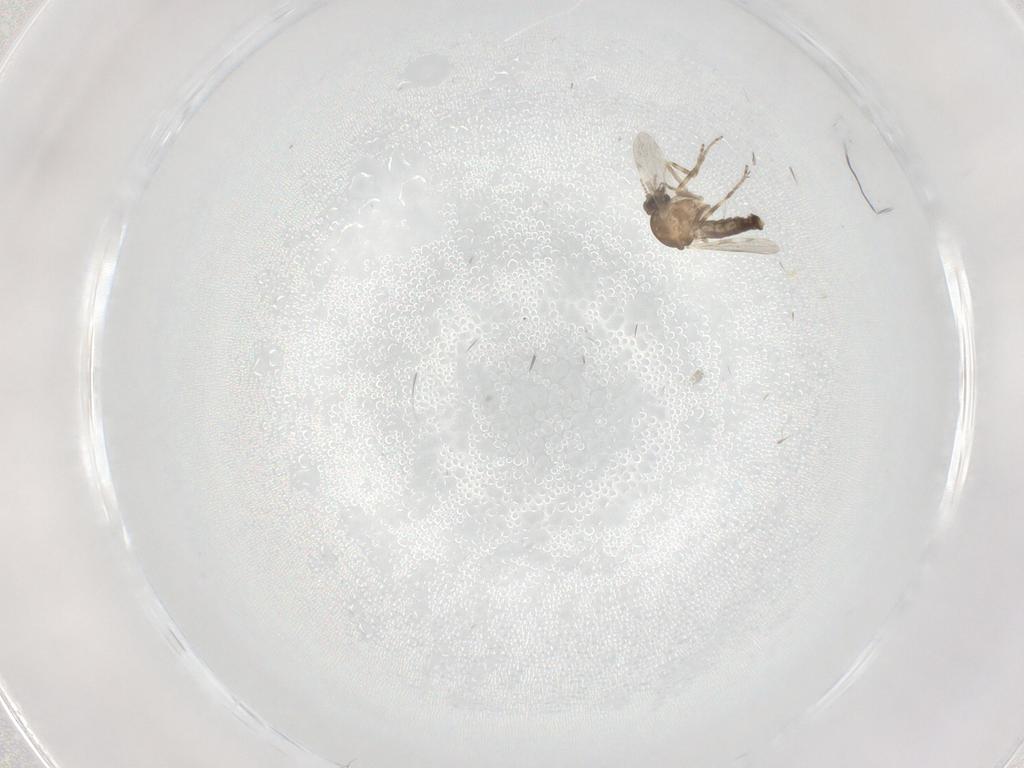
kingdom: Animalia
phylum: Arthropoda
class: Insecta
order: Diptera
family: Chironomidae
